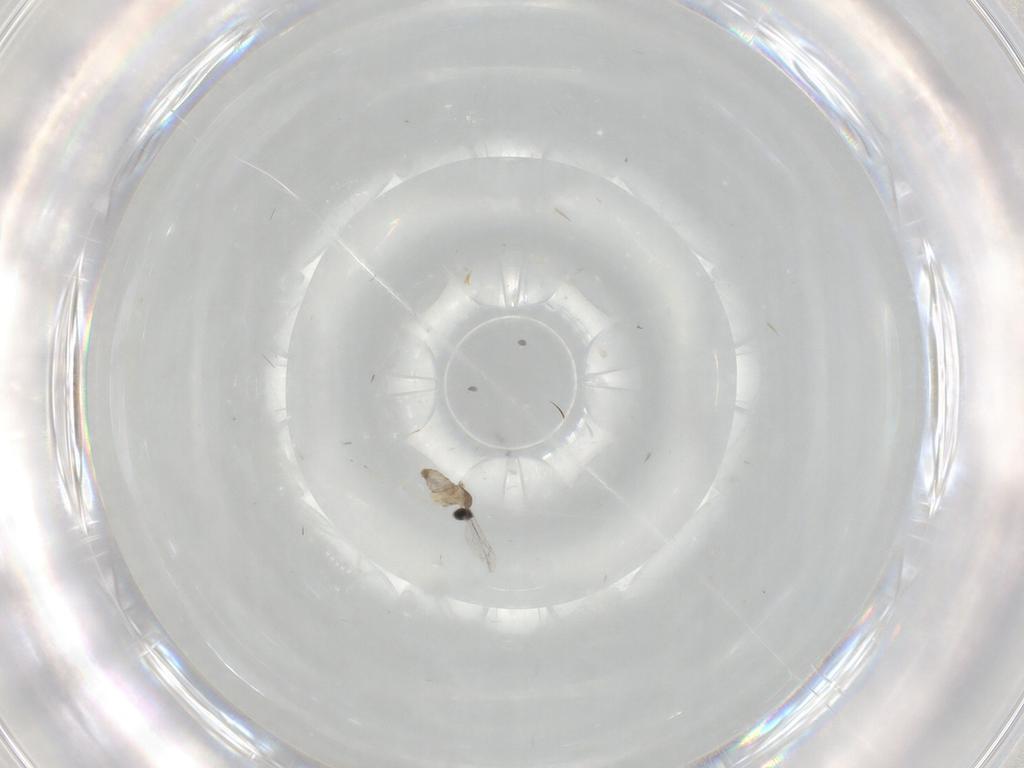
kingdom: Animalia
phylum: Arthropoda
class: Insecta
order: Diptera
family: Cecidomyiidae
